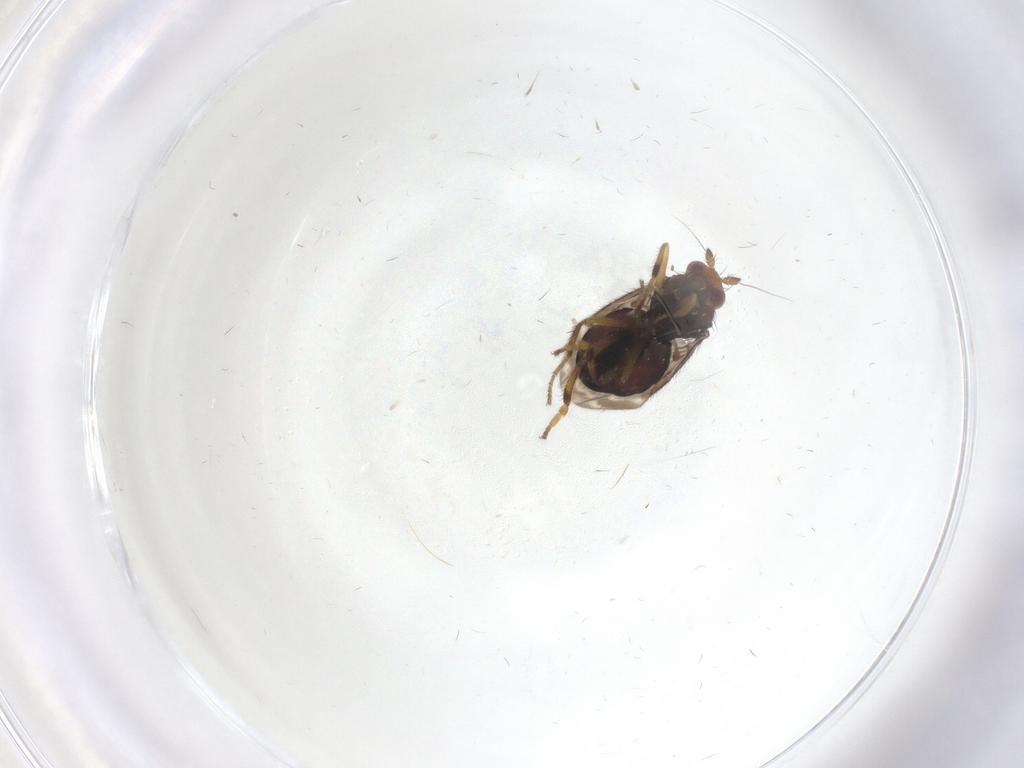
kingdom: Animalia
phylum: Arthropoda
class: Insecta
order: Diptera
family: Sphaeroceridae
